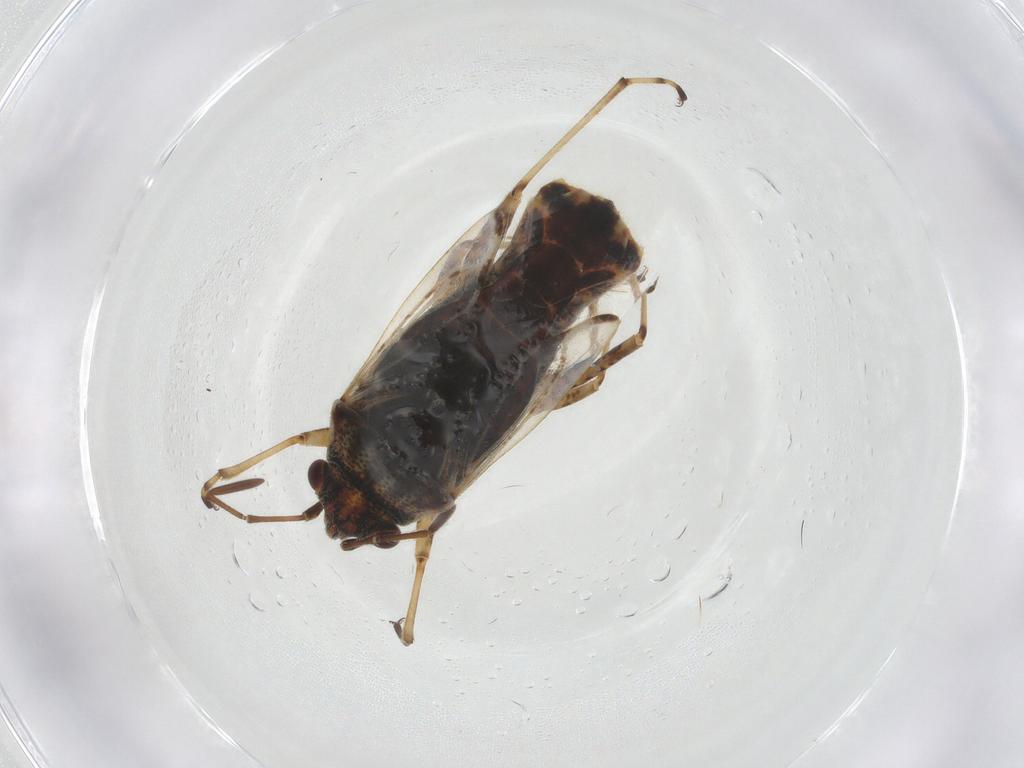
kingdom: Animalia
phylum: Arthropoda
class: Insecta
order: Hemiptera
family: Lygaeidae
